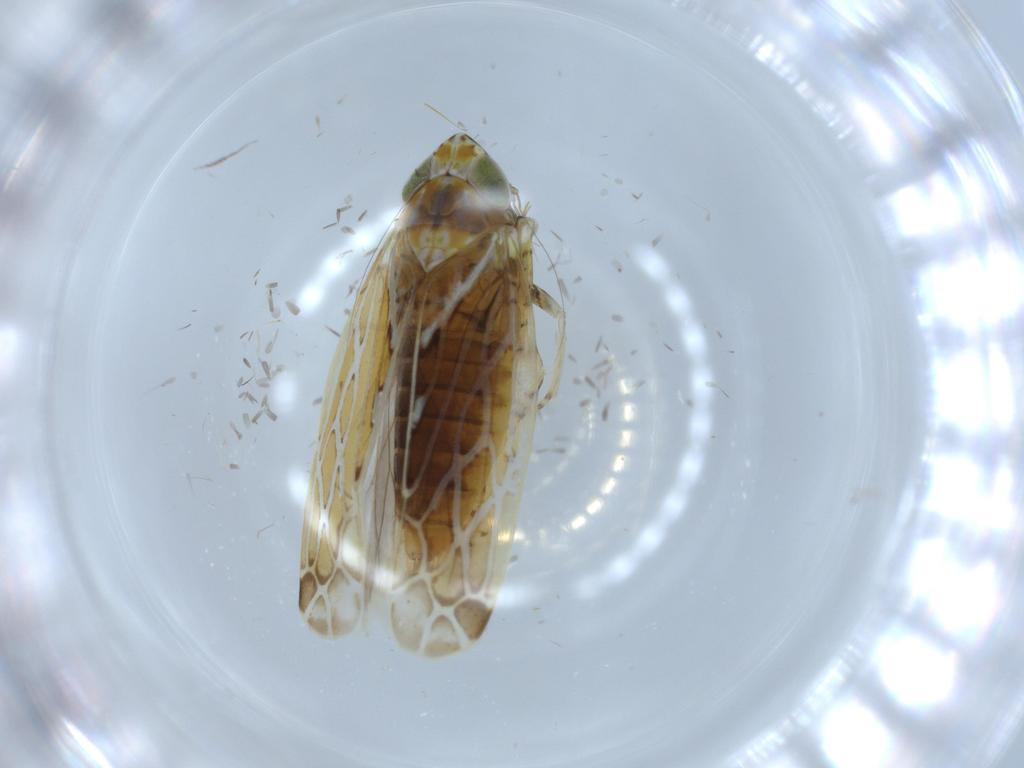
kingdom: Animalia
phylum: Arthropoda
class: Insecta
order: Hemiptera
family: Cicadellidae
